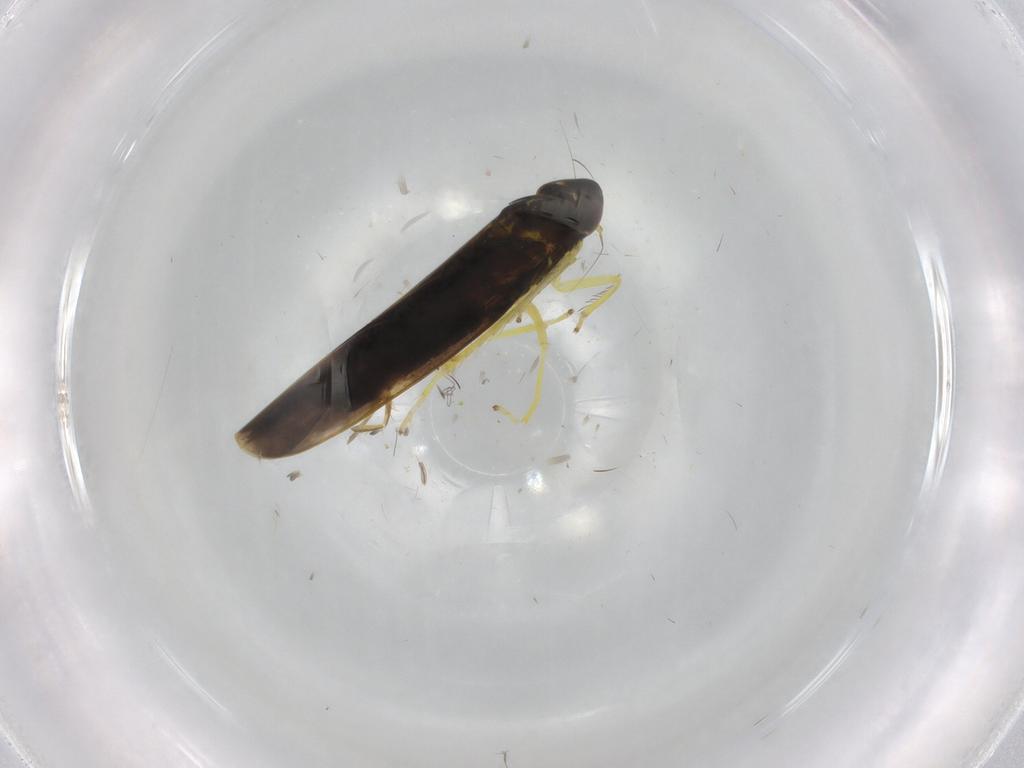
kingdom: Animalia
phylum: Arthropoda
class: Insecta
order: Hemiptera
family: Cicadellidae
